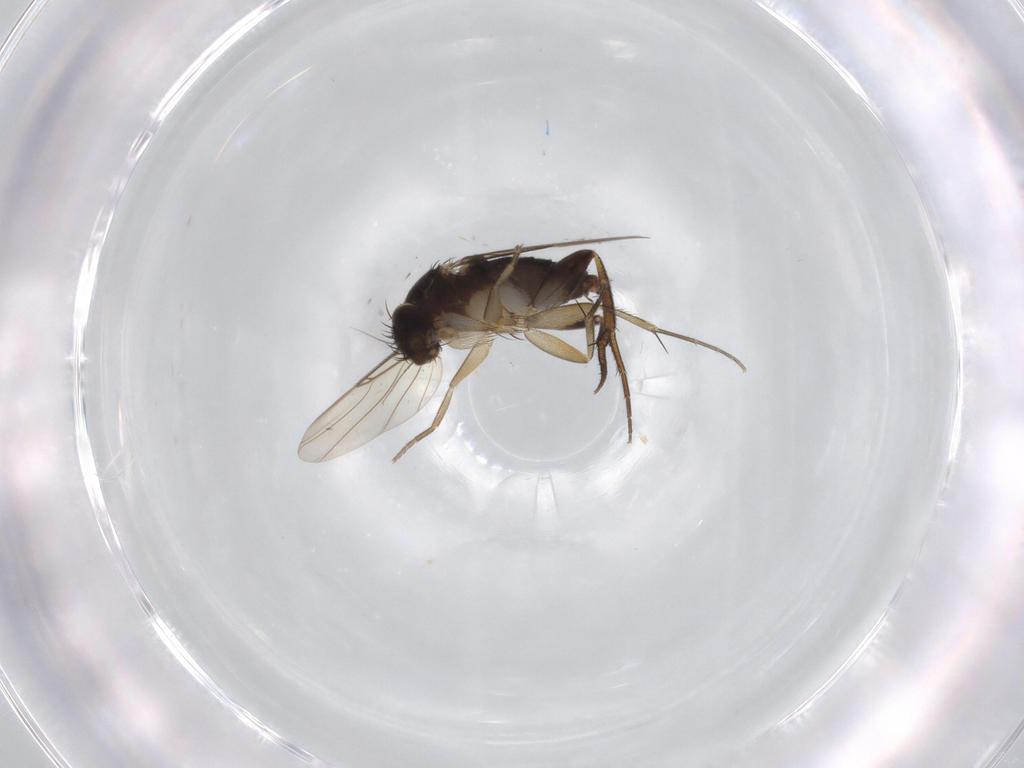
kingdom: Animalia
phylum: Arthropoda
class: Insecta
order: Diptera
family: Phoridae
